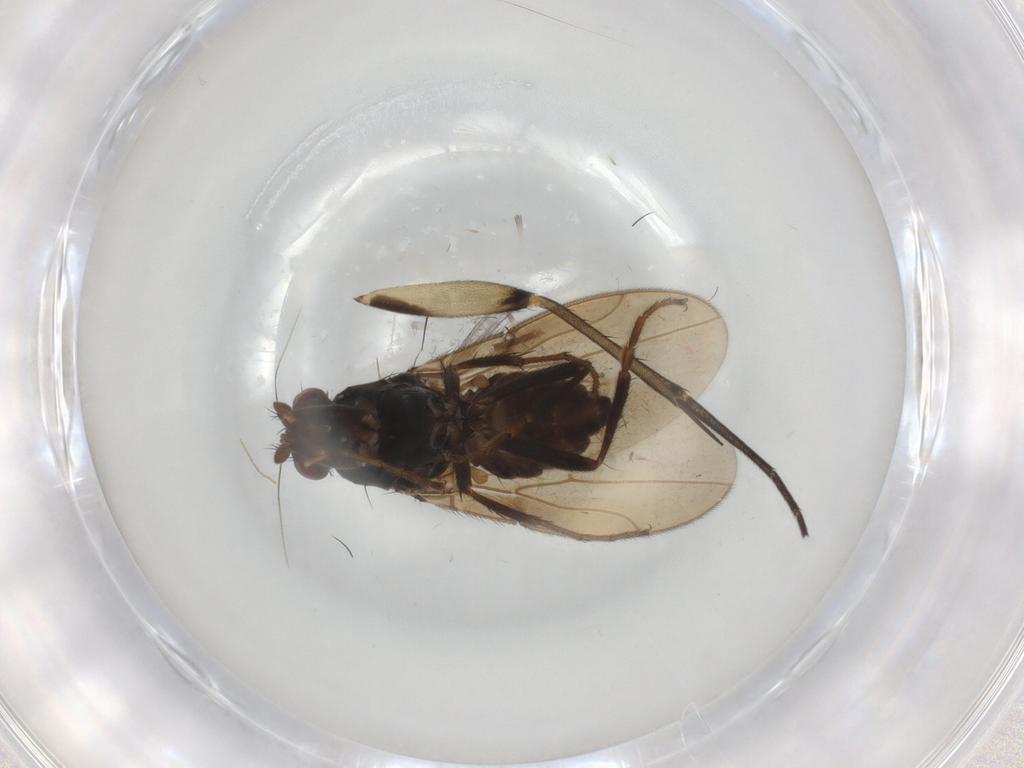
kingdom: Animalia
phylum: Arthropoda
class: Insecta
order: Diptera
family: Sphaeroceridae
